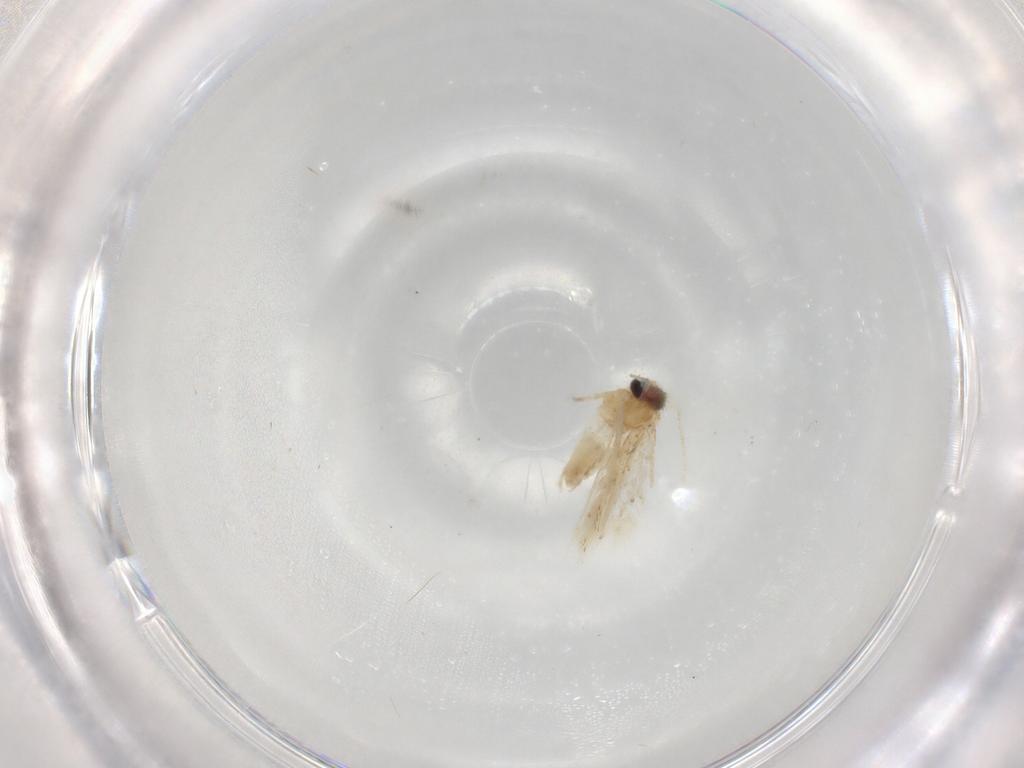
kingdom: Animalia
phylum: Arthropoda
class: Insecta
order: Lepidoptera
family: Nepticulidae
